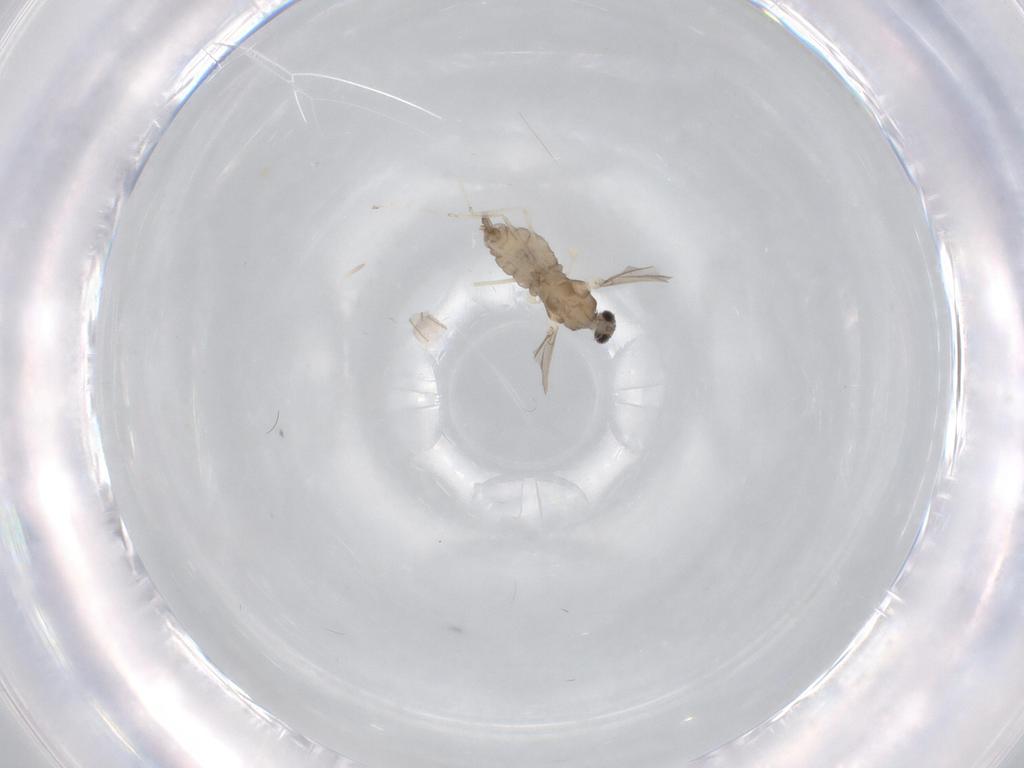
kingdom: Animalia
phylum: Arthropoda
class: Insecta
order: Diptera
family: Cecidomyiidae
